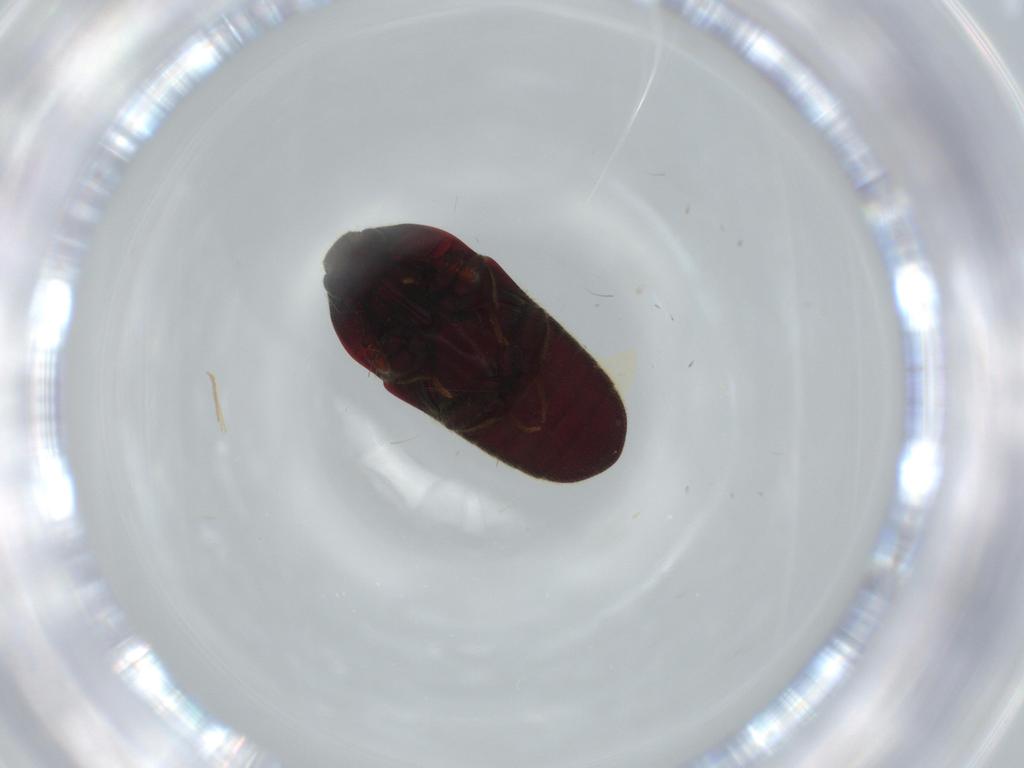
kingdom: Animalia
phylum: Arthropoda
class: Insecta
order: Coleoptera
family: Throscidae
